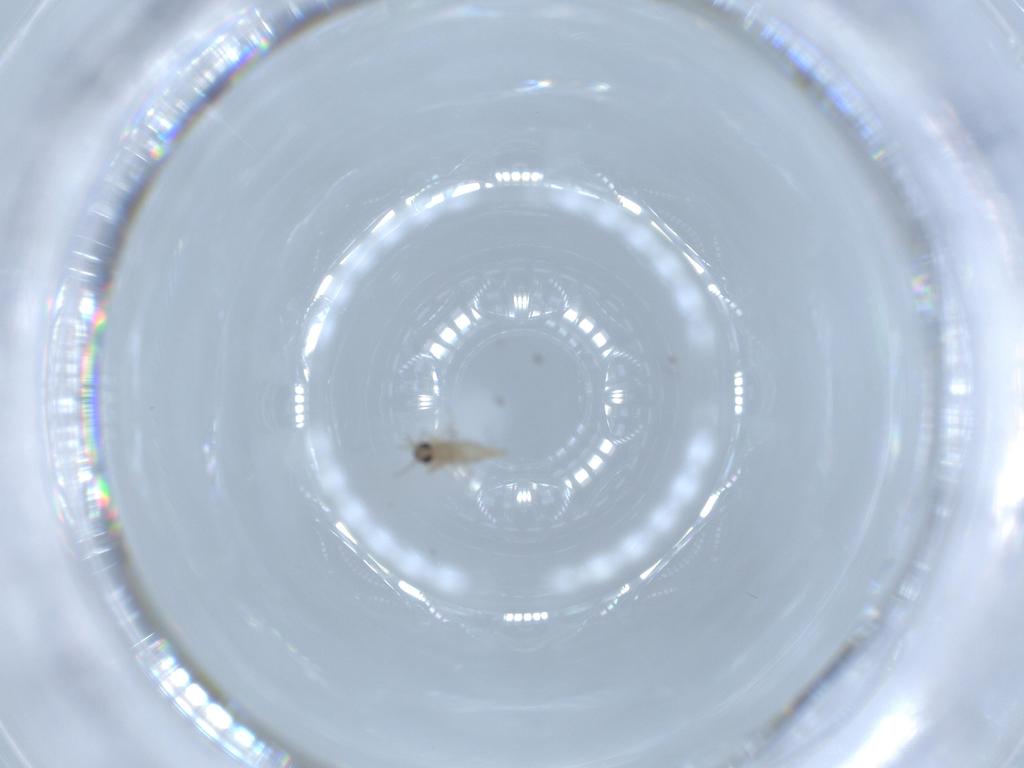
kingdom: Animalia
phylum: Arthropoda
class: Insecta
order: Diptera
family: Cecidomyiidae
